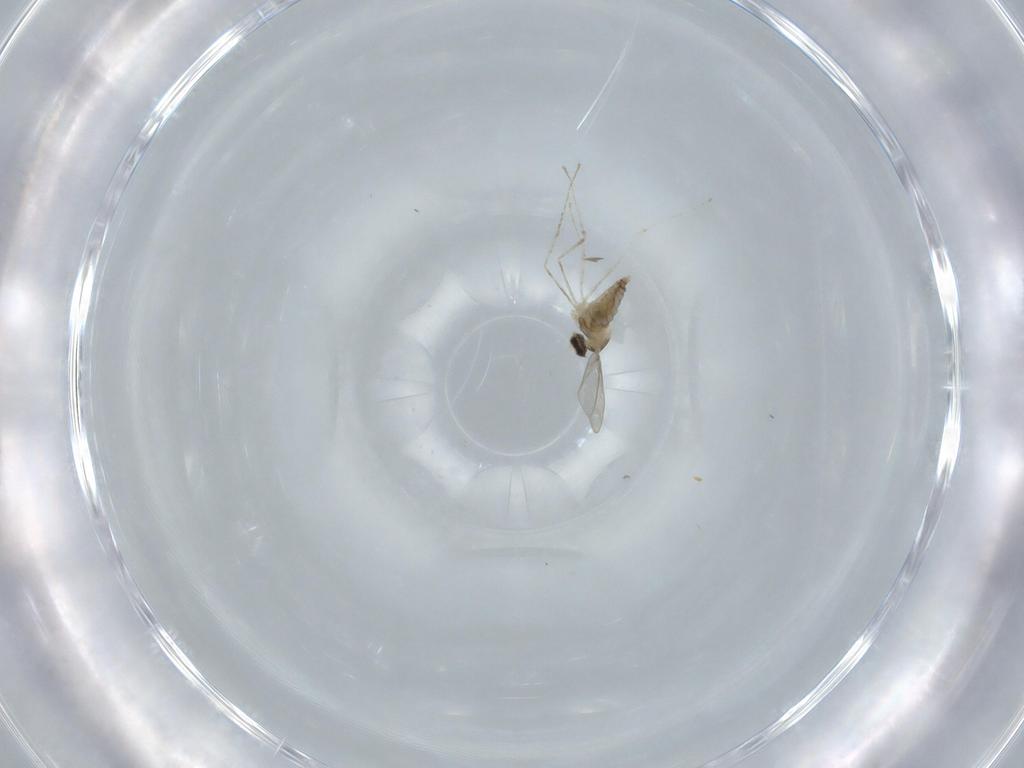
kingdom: Animalia
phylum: Arthropoda
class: Insecta
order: Diptera
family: Cecidomyiidae
